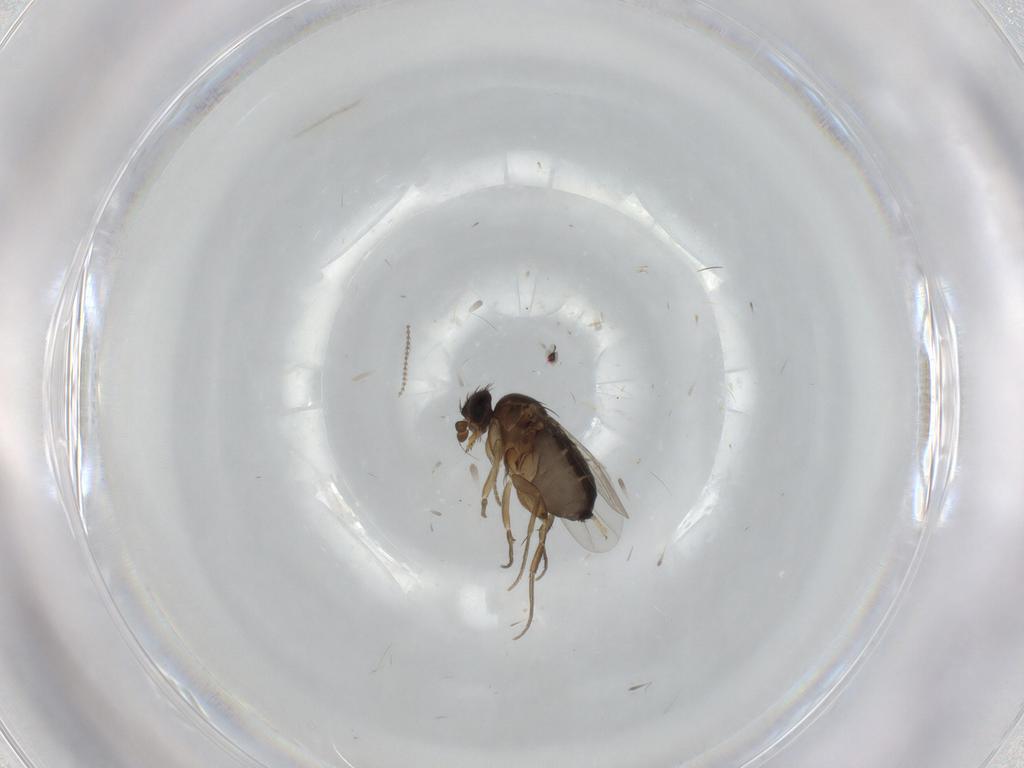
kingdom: Animalia
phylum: Arthropoda
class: Insecta
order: Diptera
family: Phoridae
